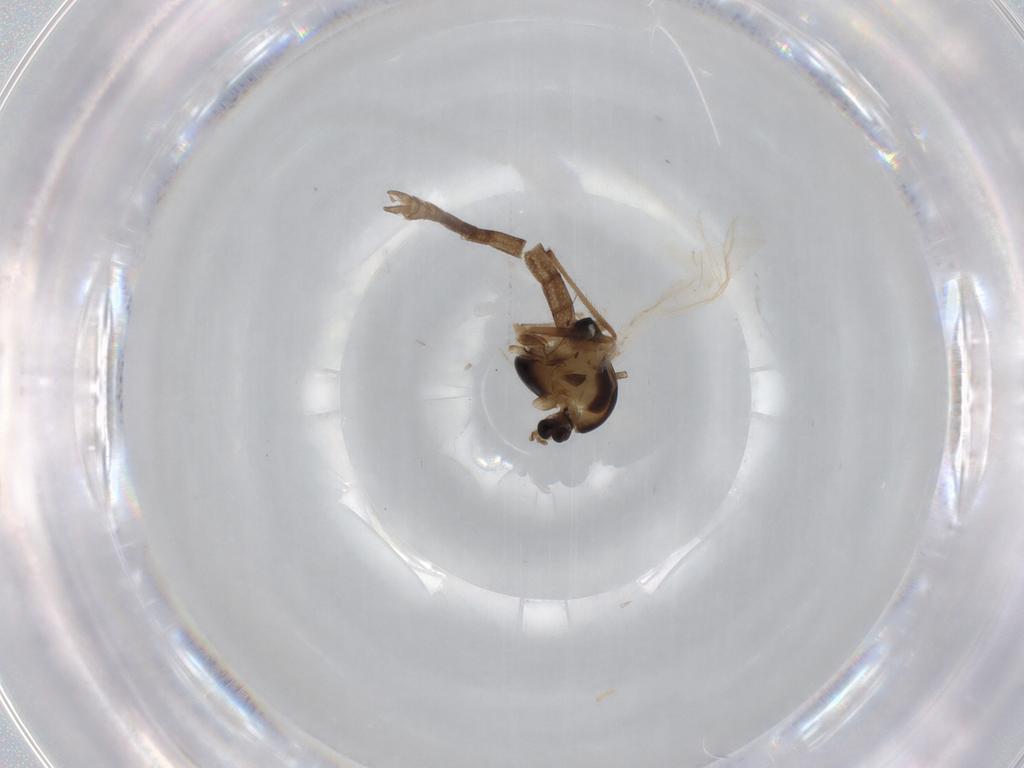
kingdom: Animalia
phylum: Arthropoda
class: Insecta
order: Diptera
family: Chironomidae
